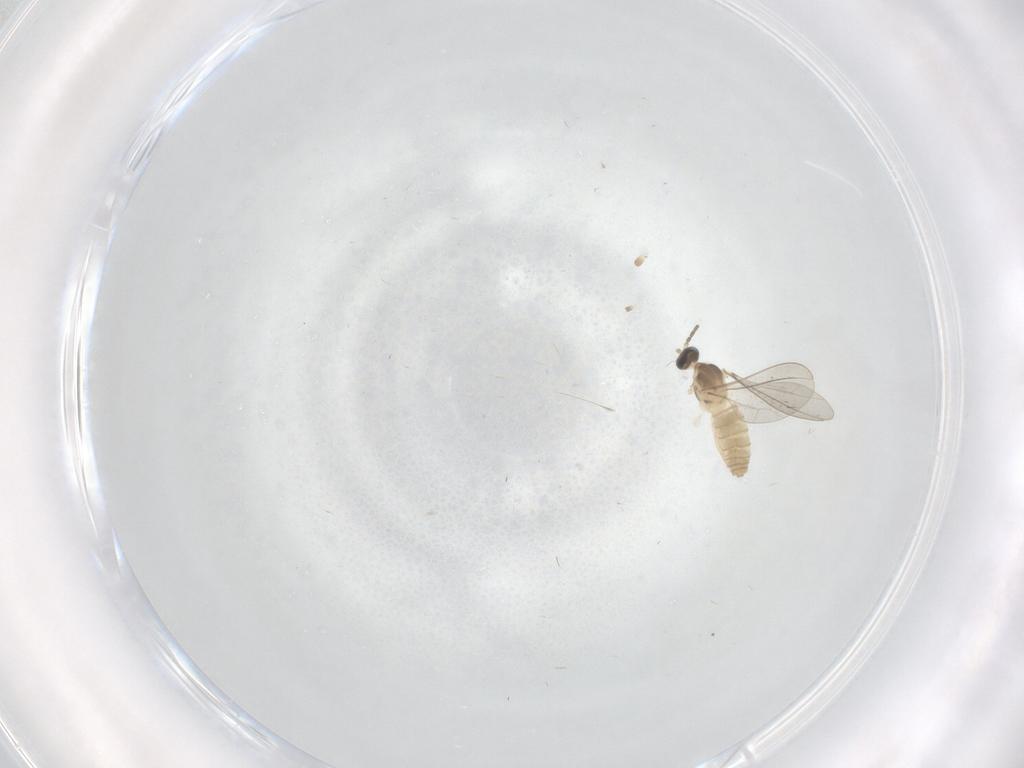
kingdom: Animalia
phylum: Arthropoda
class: Insecta
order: Diptera
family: Cecidomyiidae
